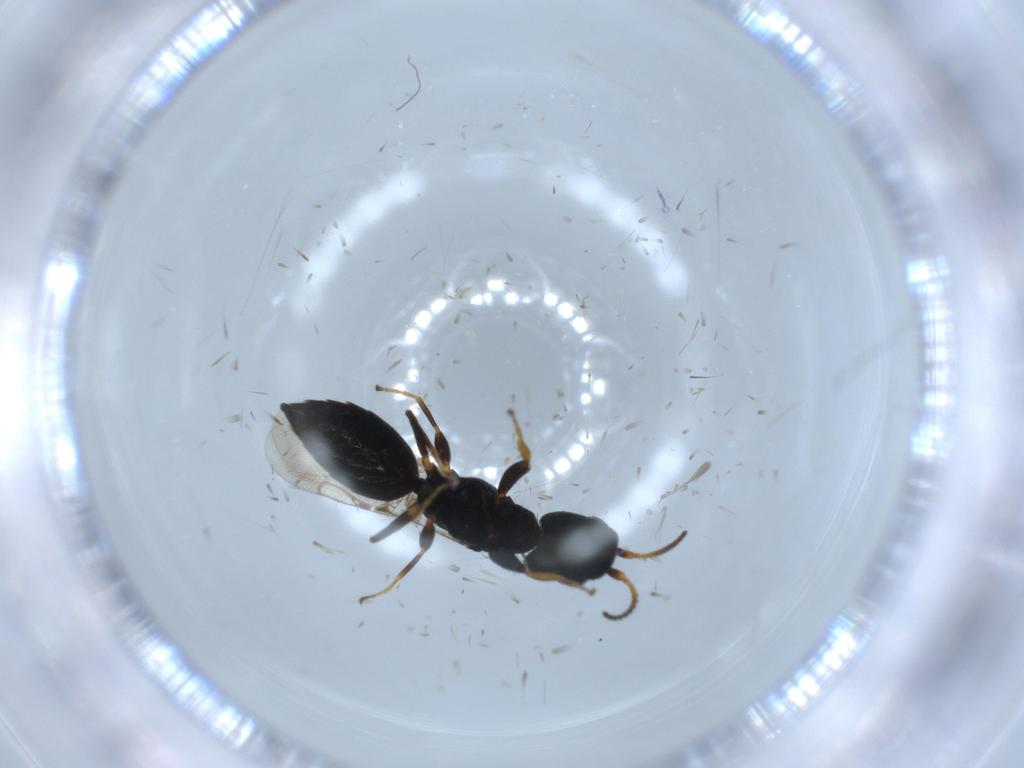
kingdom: Animalia
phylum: Arthropoda
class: Insecta
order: Hymenoptera
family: Bethylidae
